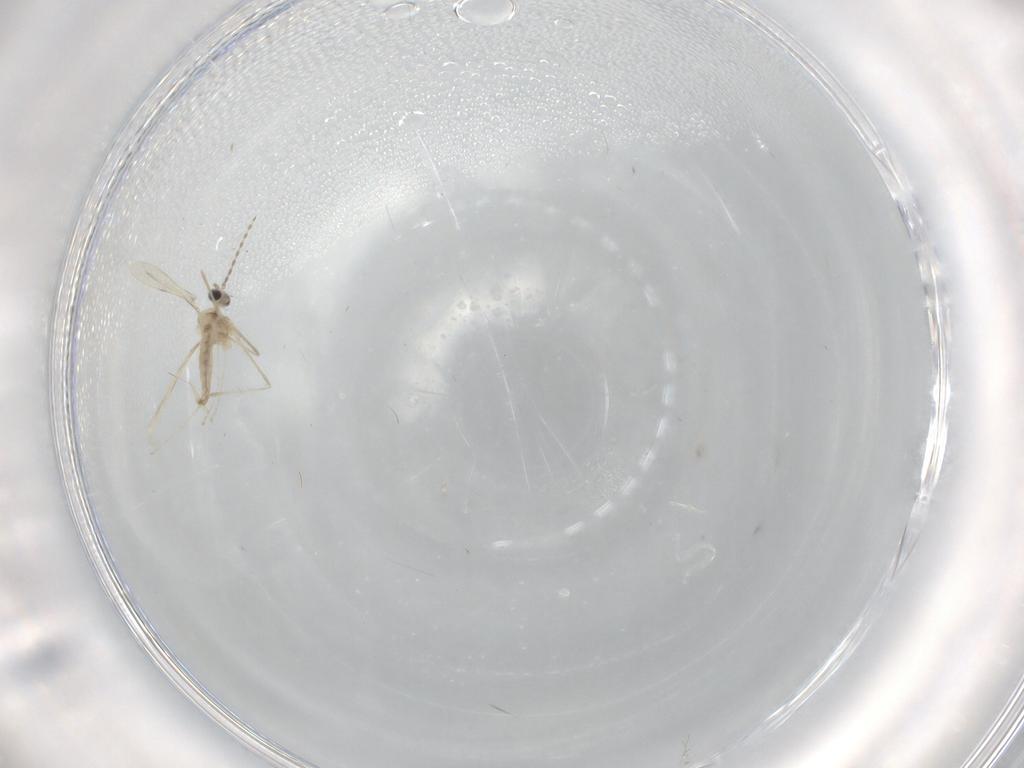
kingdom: Animalia
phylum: Arthropoda
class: Insecta
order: Diptera
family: Cecidomyiidae
